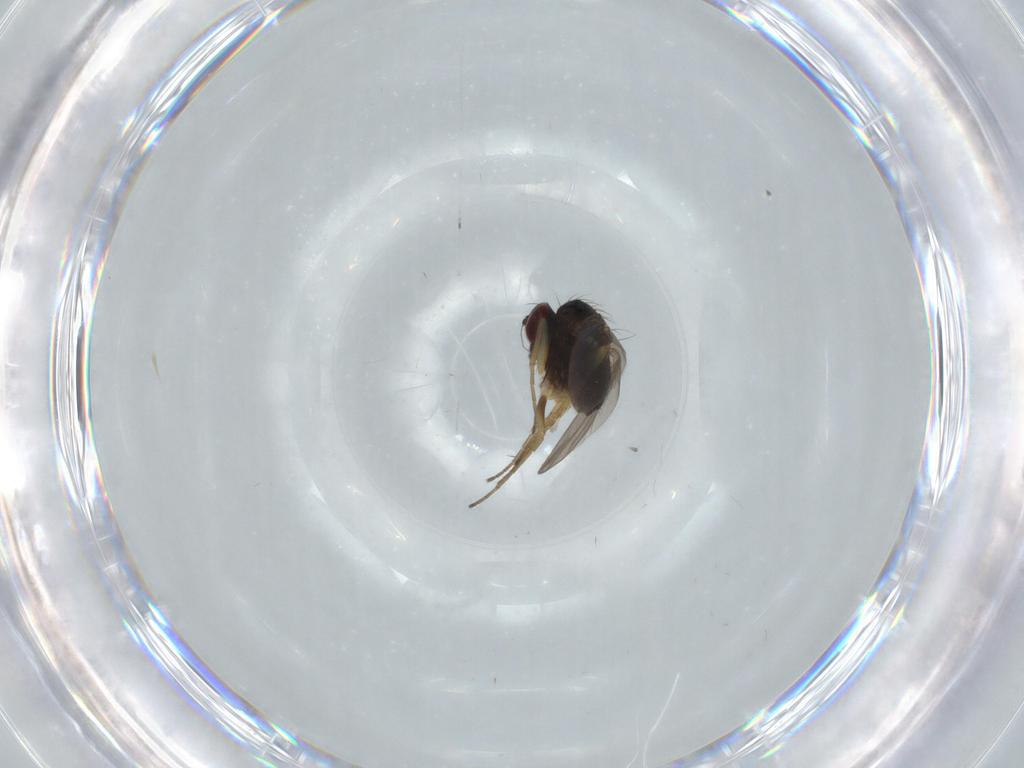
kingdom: Animalia
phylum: Arthropoda
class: Insecta
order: Diptera
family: Dolichopodidae
